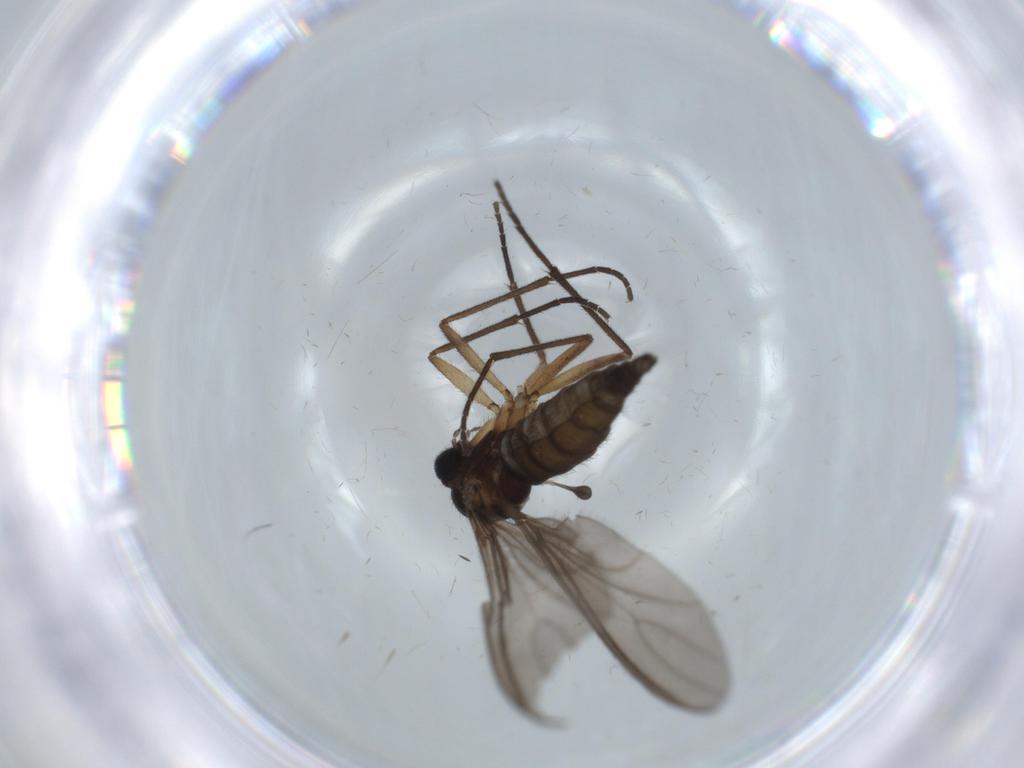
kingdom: Animalia
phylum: Arthropoda
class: Insecta
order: Diptera
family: Sciaridae
